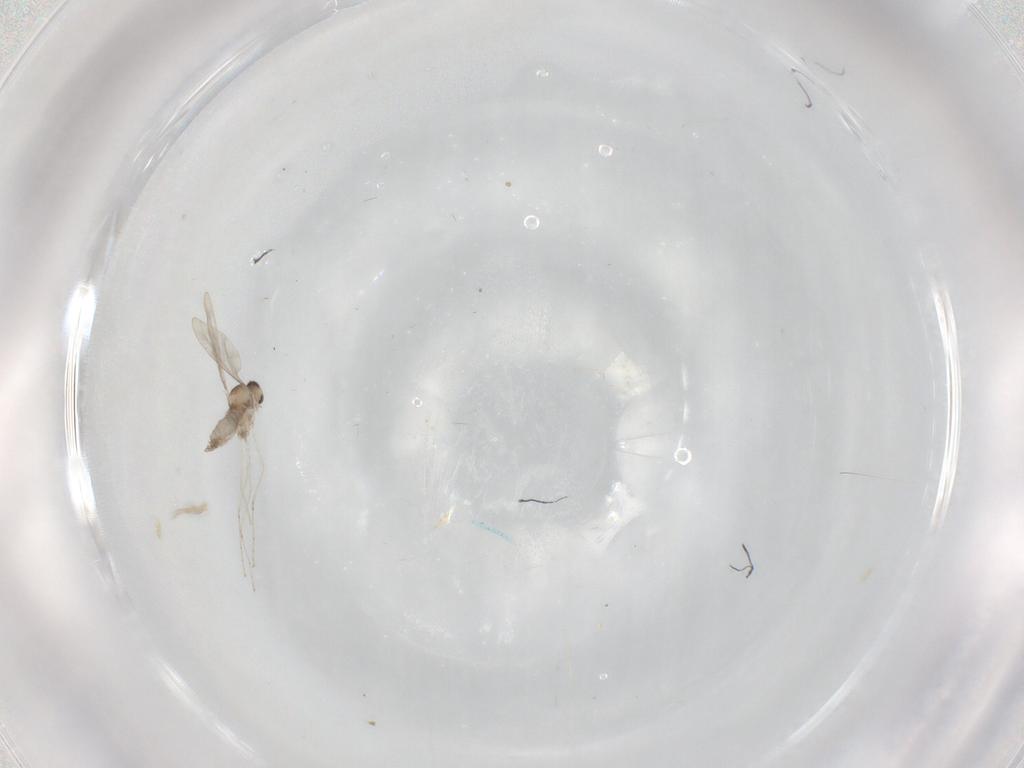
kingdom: Animalia
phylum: Arthropoda
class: Insecta
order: Diptera
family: Cecidomyiidae
